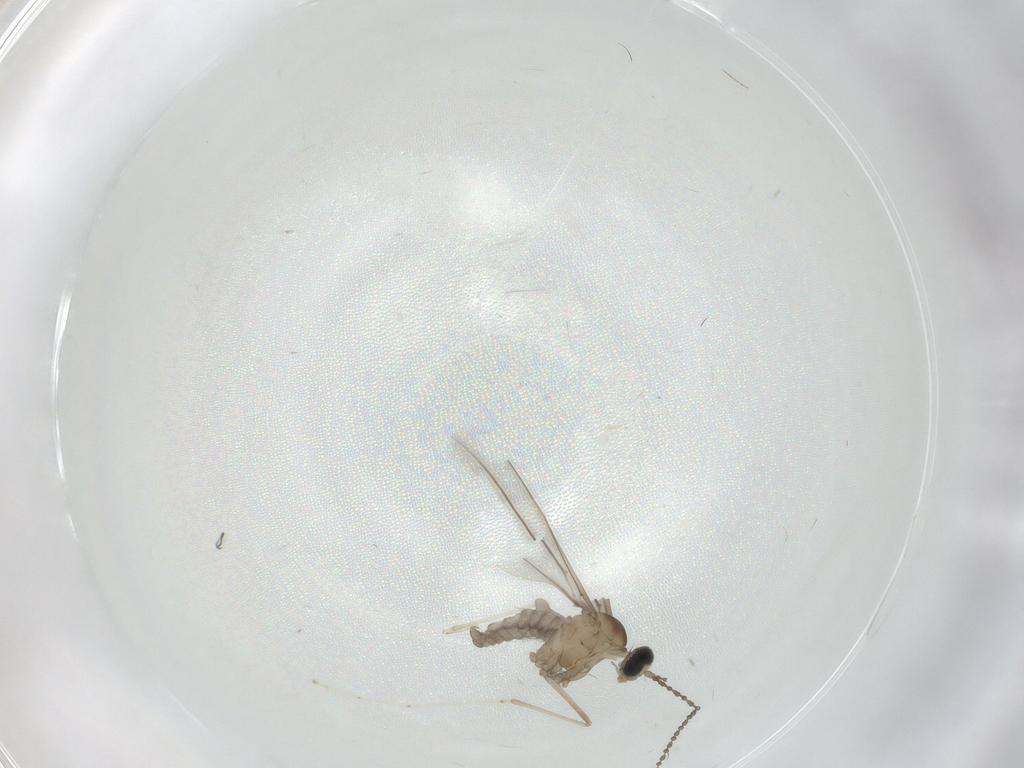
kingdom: Animalia
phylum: Arthropoda
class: Insecta
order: Diptera
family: Cecidomyiidae
